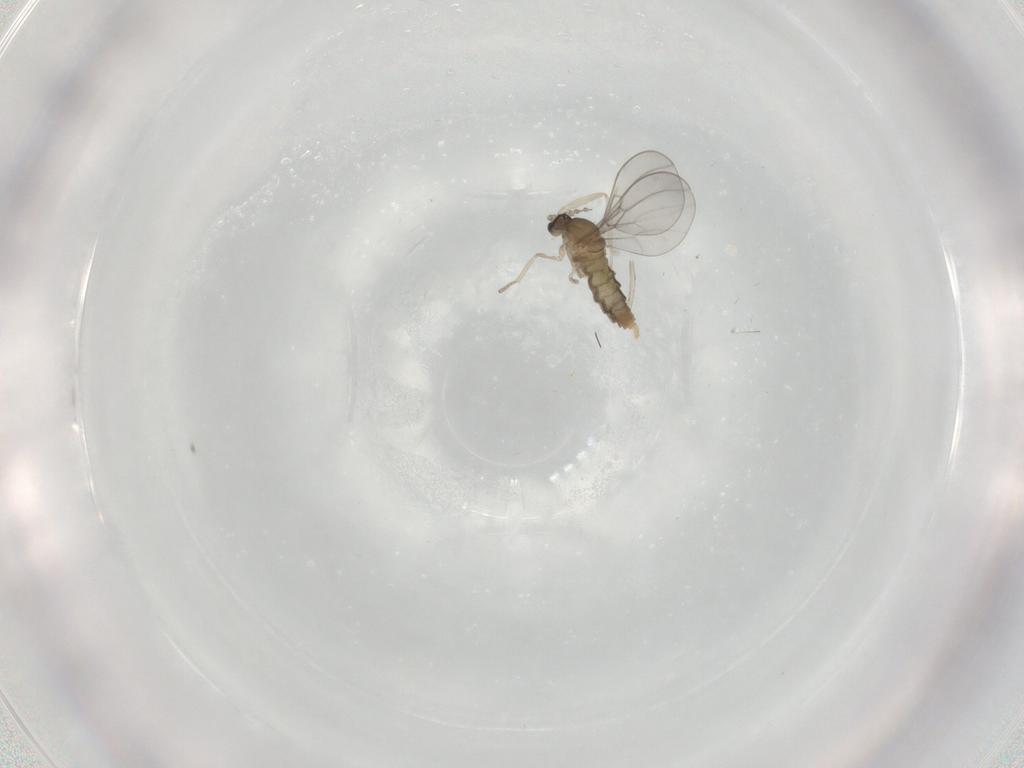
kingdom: Animalia
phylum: Arthropoda
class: Insecta
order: Diptera
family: Cecidomyiidae
